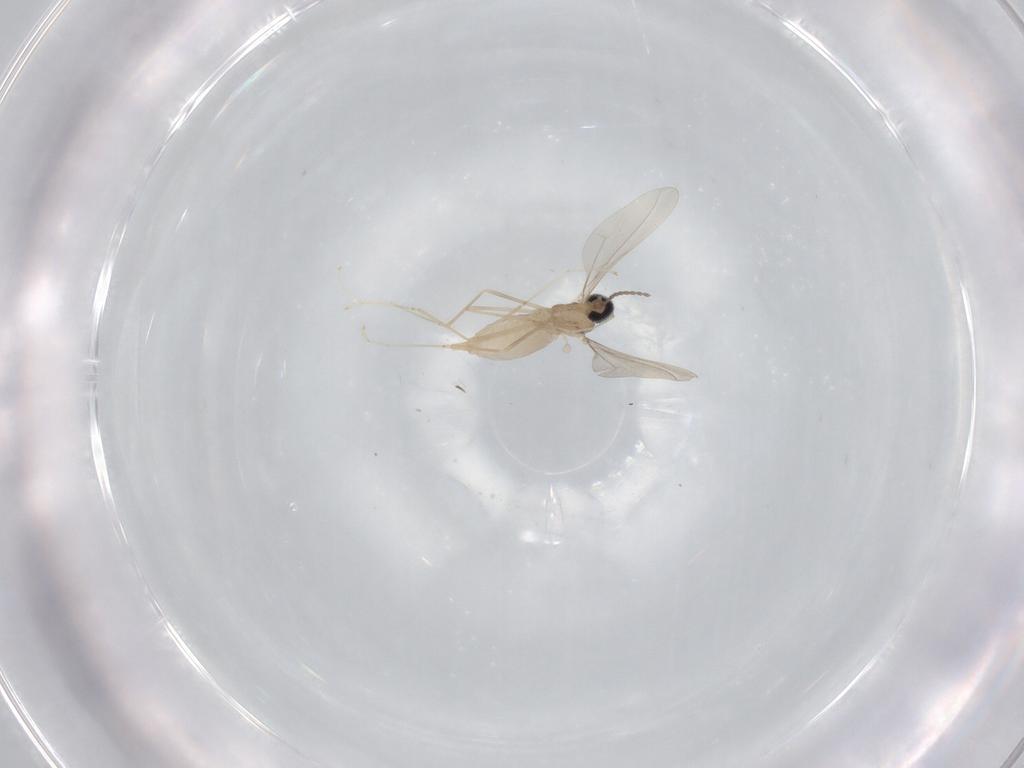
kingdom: Animalia
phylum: Arthropoda
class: Insecta
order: Diptera
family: Cecidomyiidae
